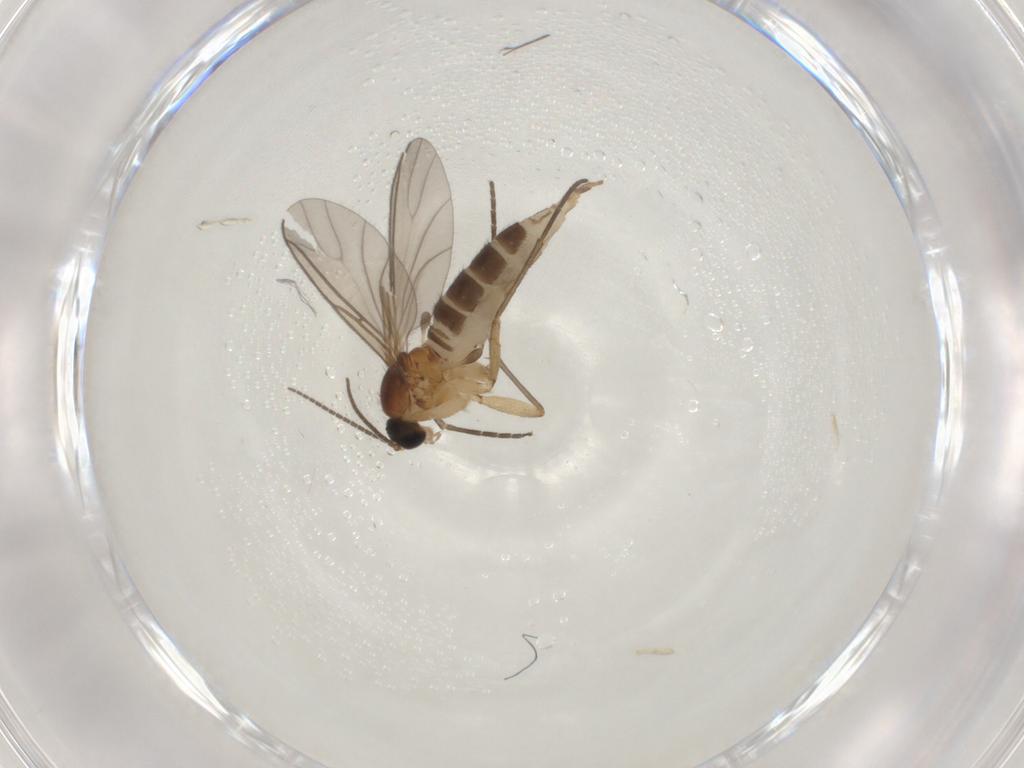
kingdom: Animalia
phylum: Arthropoda
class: Insecta
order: Diptera
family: Sciaridae
